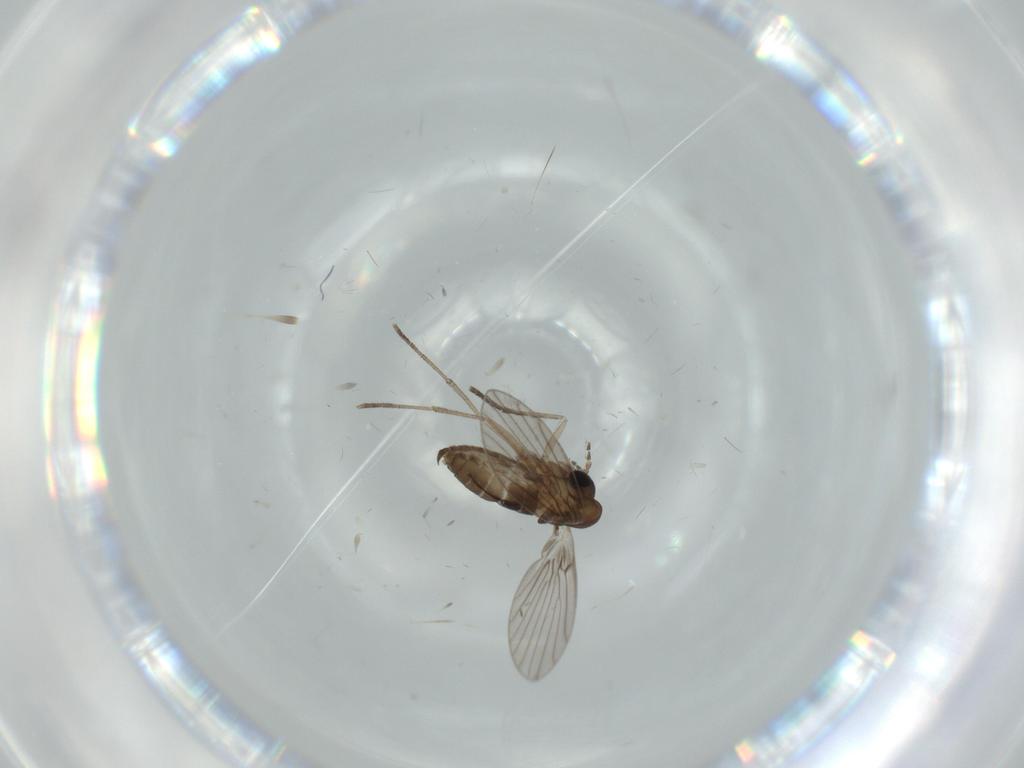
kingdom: Animalia
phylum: Arthropoda
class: Insecta
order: Diptera
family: Psychodidae
